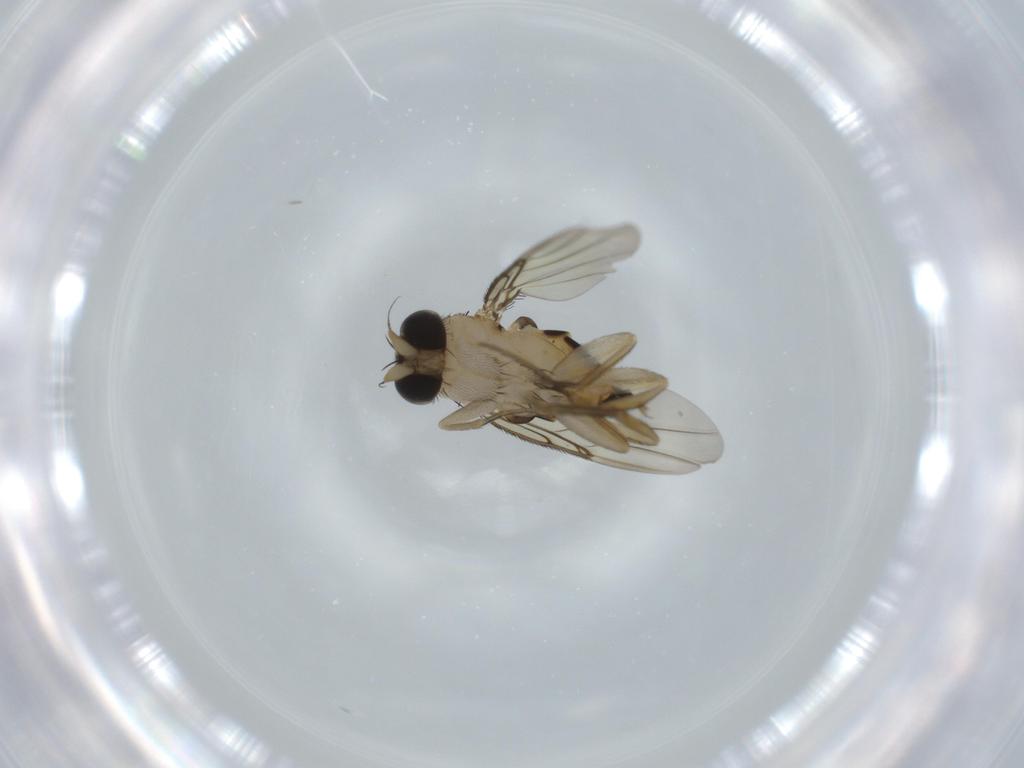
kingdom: Animalia
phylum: Arthropoda
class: Insecta
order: Diptera
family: Phoridae
